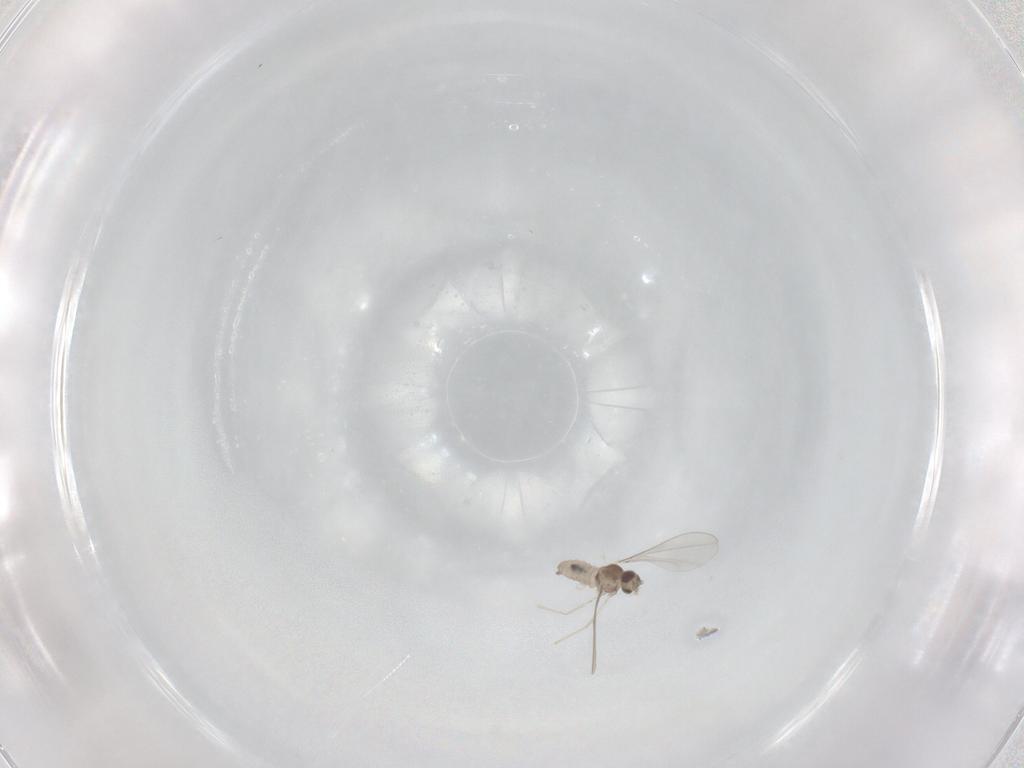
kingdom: Animalia
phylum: Arthropoda
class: Insecta
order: Diptera
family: Cecidomyiidae
